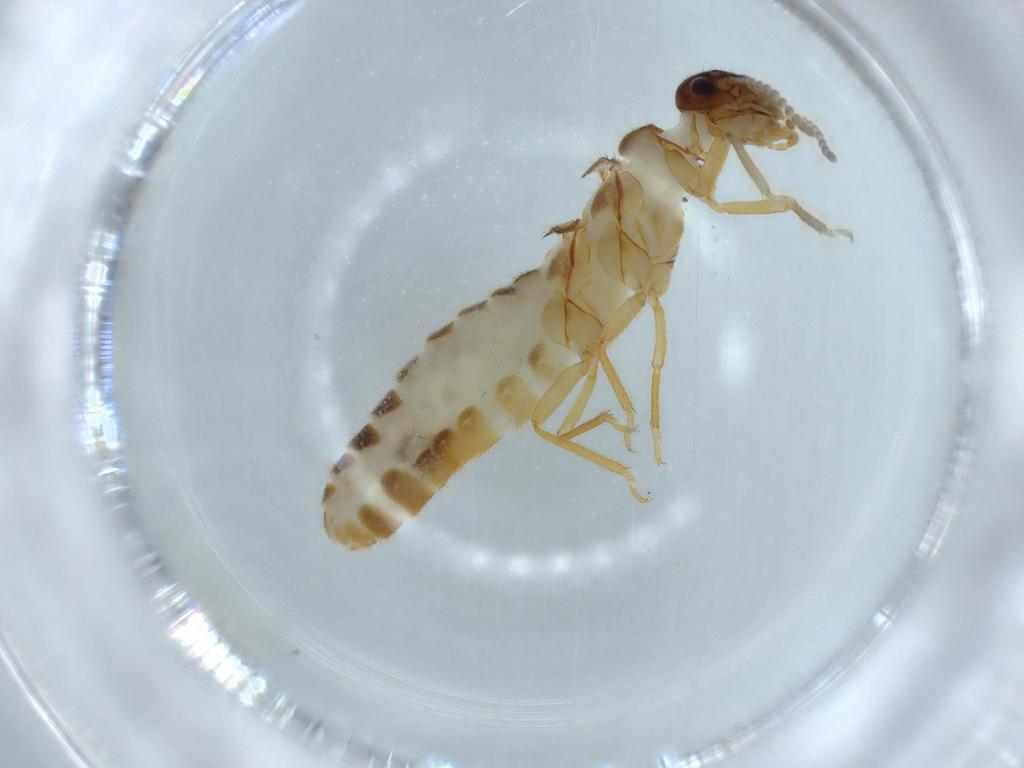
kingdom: Animalia
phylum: Arthropoda
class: Insecta
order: Blattodea
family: Termitidae
